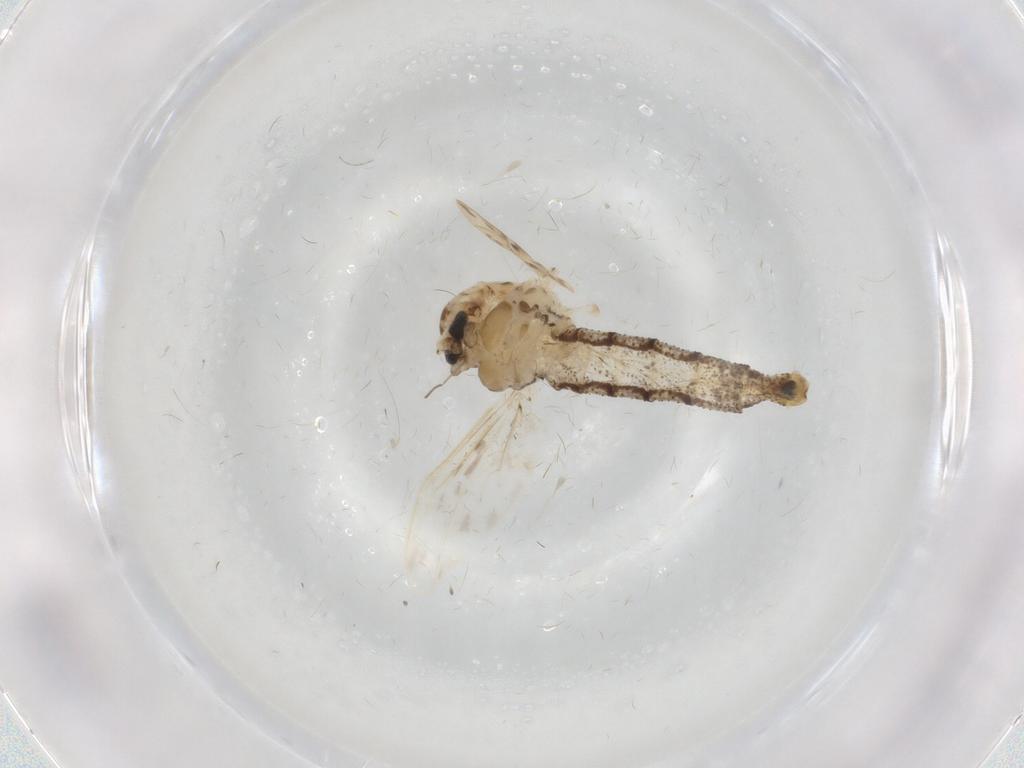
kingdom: Animalia
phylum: Arthropoda
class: Insecta
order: Diptera
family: Chaoboridae
